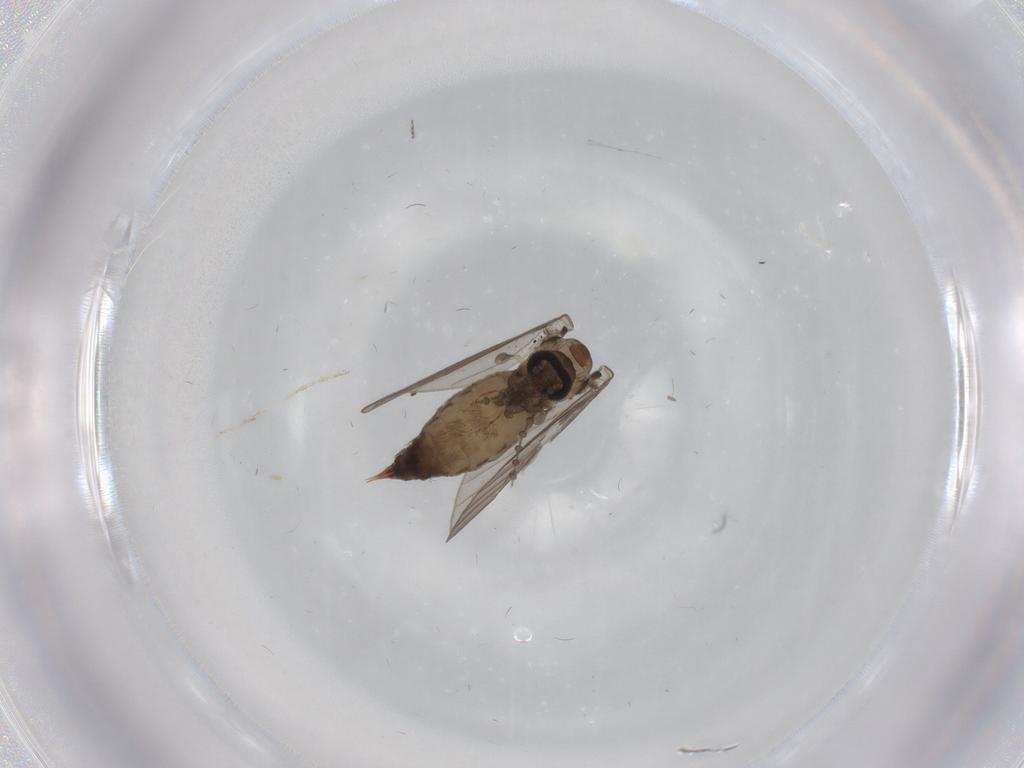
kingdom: Animalia
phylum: Arthropoda
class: Insecta
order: Diptera
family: Psychodidae
